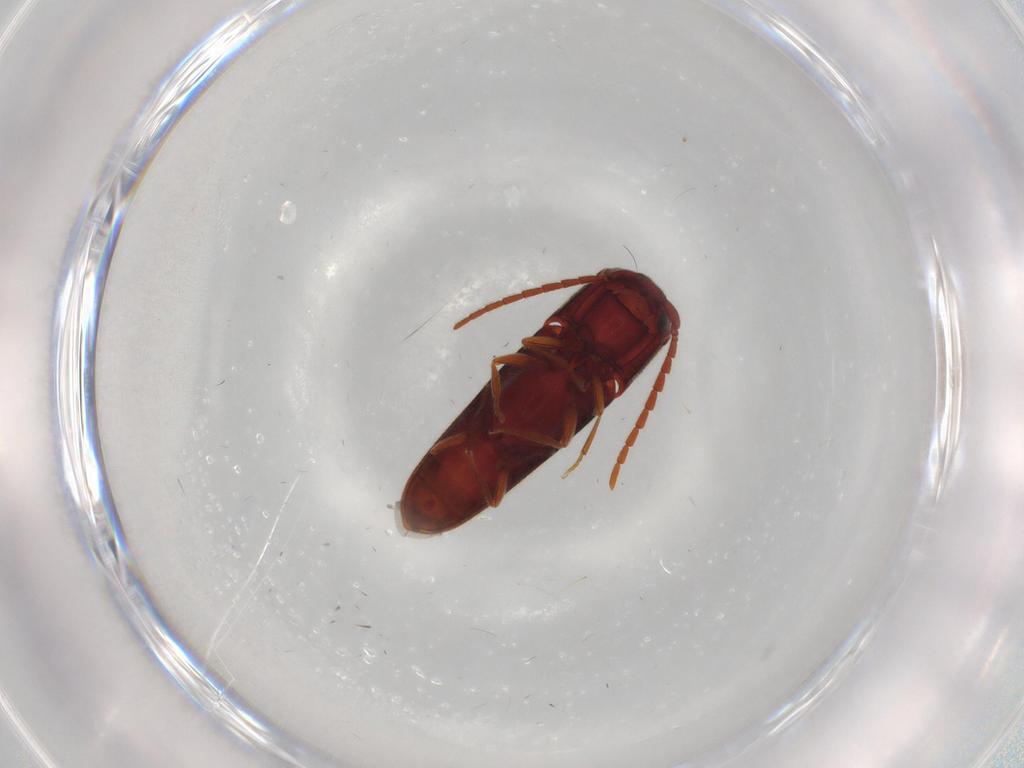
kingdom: Animalia
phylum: Arthropoda
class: Insecta
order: Coleoptera
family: Eucnemidae
